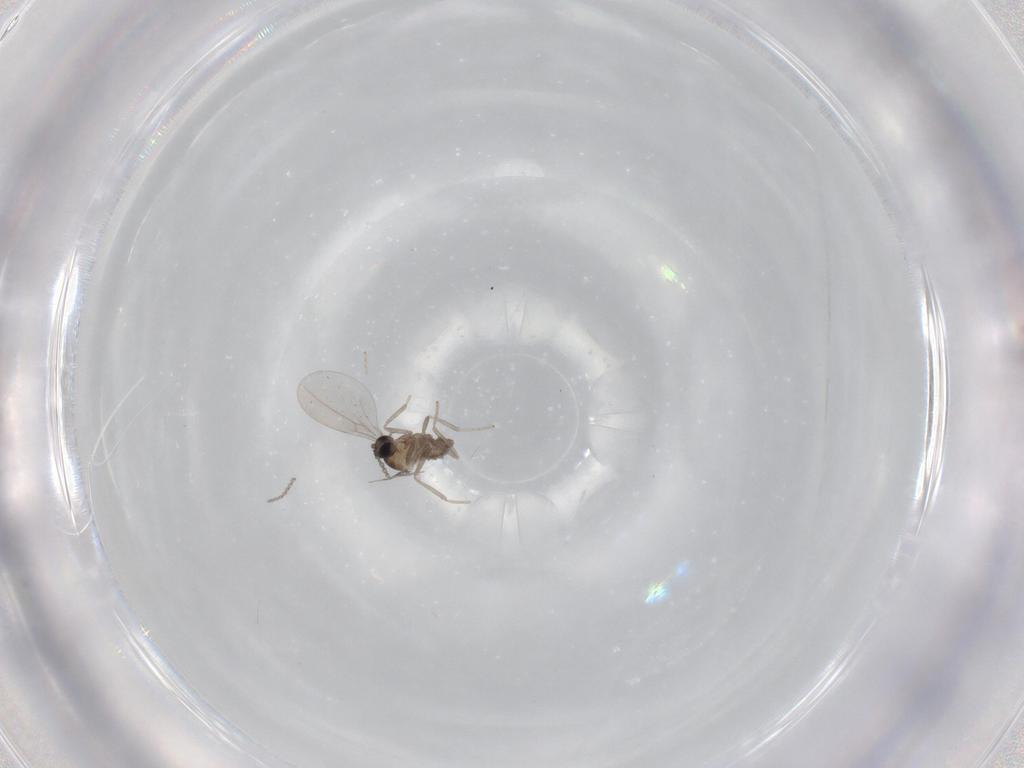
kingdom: Animalia
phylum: Arthropoda
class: Insecta
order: Diptera
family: Cecidomyiidae
